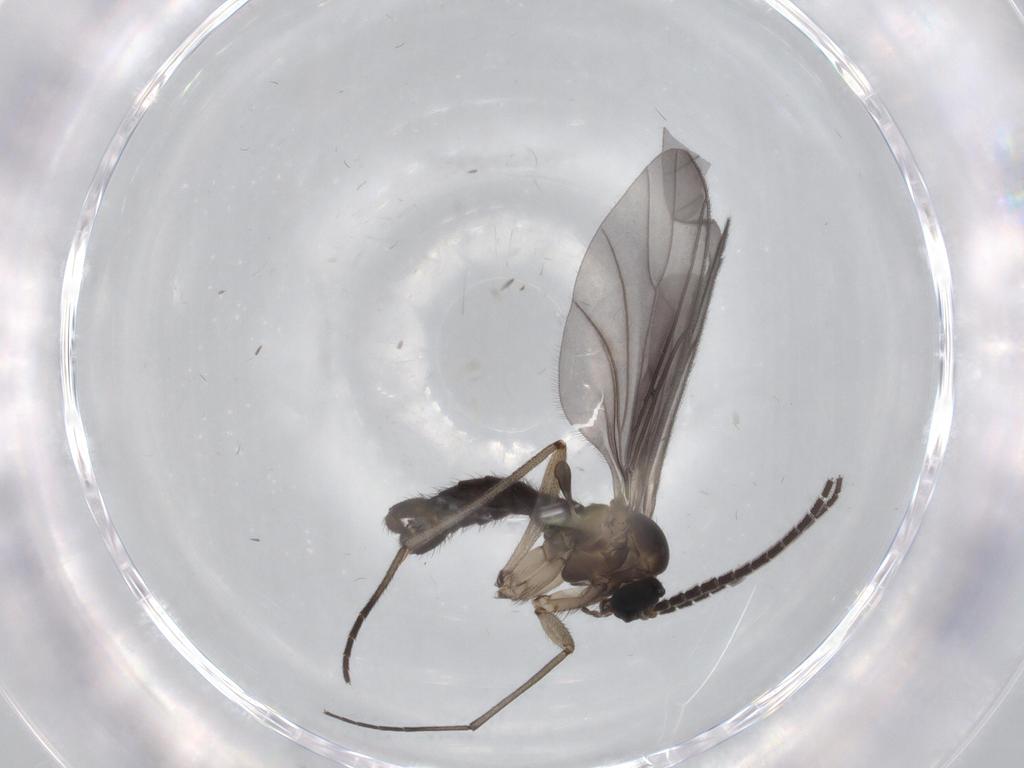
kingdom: Animalia
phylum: Arthropoda
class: Insecta
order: Diptera
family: Sciaridae
